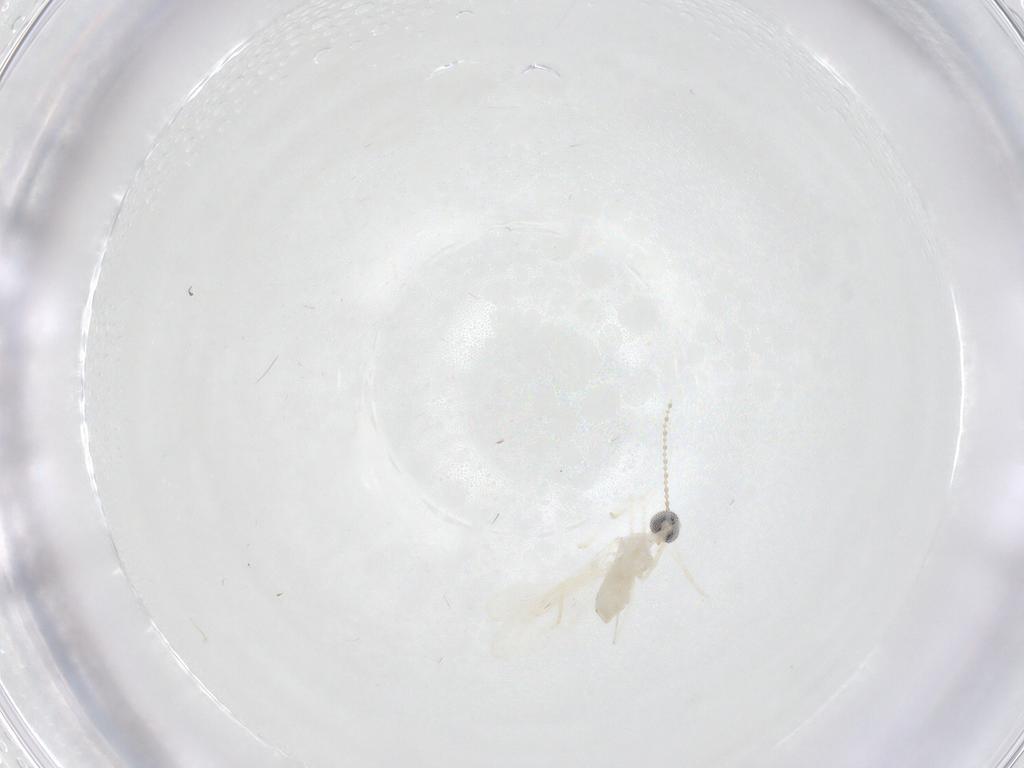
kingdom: Animalia
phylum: Arthropoda
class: Insecta
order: Diptera
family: Cecidomyiidae
